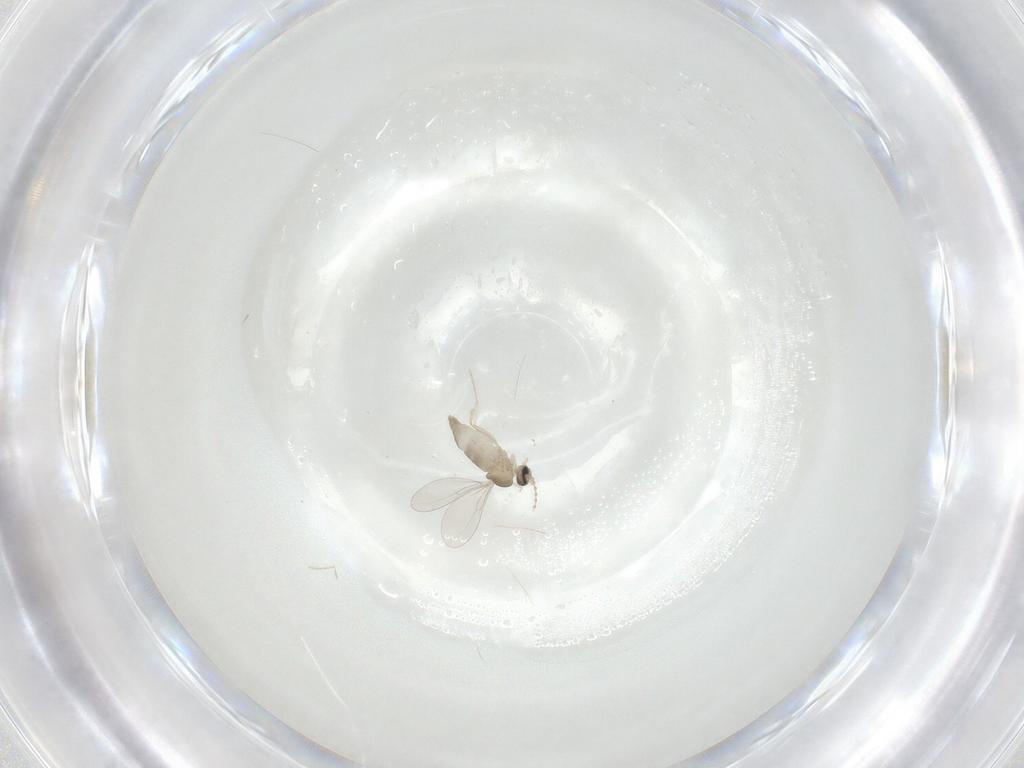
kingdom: Animalia
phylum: Arthropoda
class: Insecta
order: Diptera
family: Cecidomyiidae
